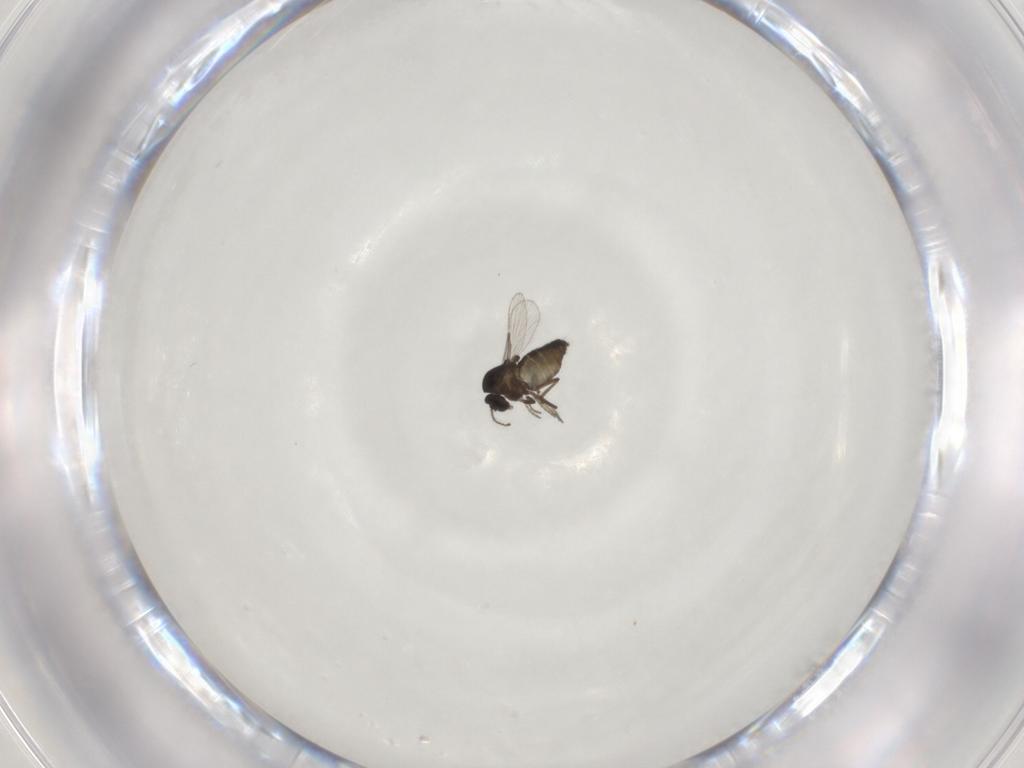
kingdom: Animalia
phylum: Arthropoda
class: Insecta
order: Diptera
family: Ceratopogonidae
